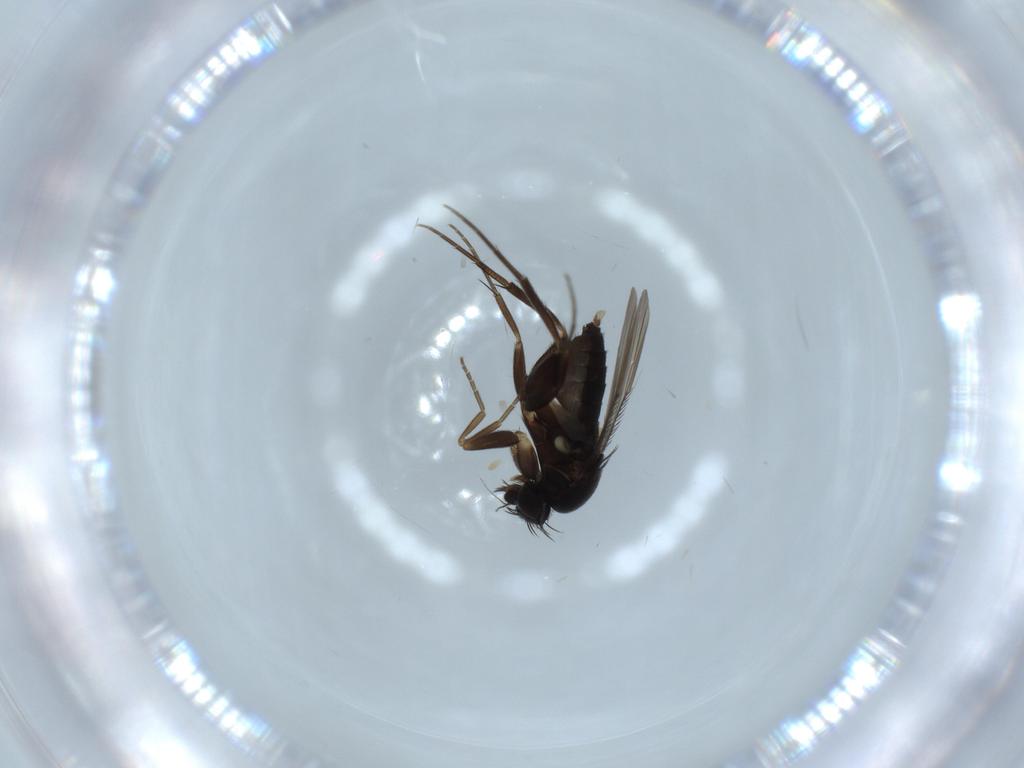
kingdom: Animalia
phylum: Arthropoda
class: Insecta
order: Diptera
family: Phoridae
